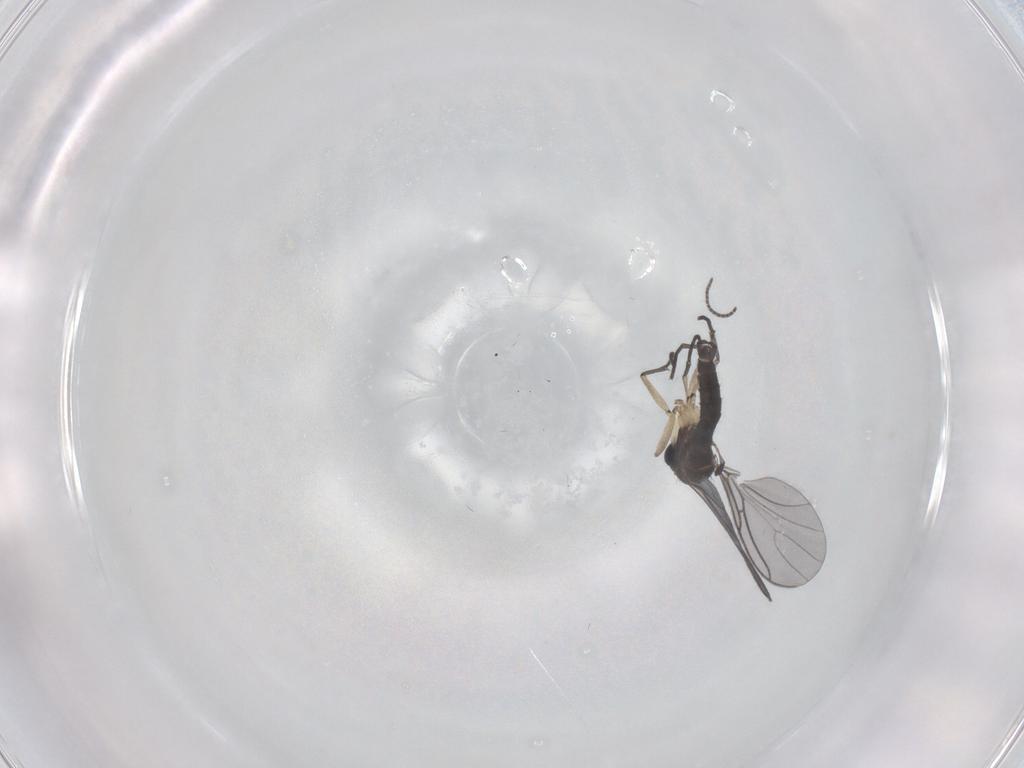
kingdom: Animalia
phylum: Arthropoda
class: Insecta
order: Diptera
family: Sciaridae
